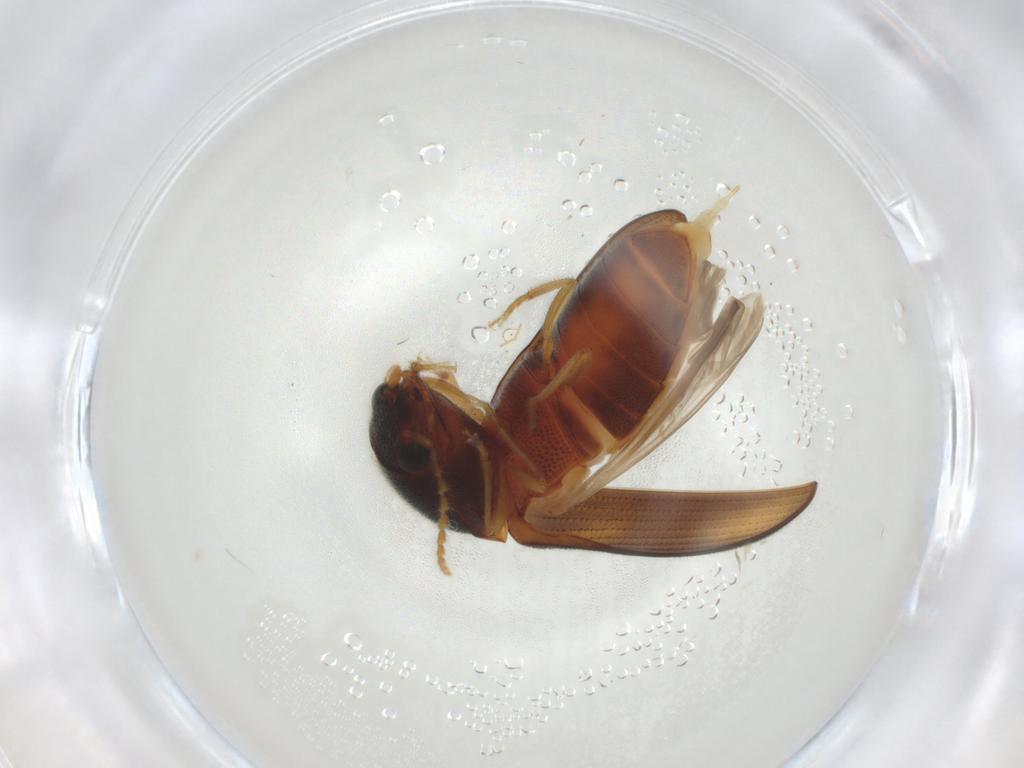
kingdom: Animalia
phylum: Arthropoda
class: Insecta
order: Coleoptera
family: Elateridae
